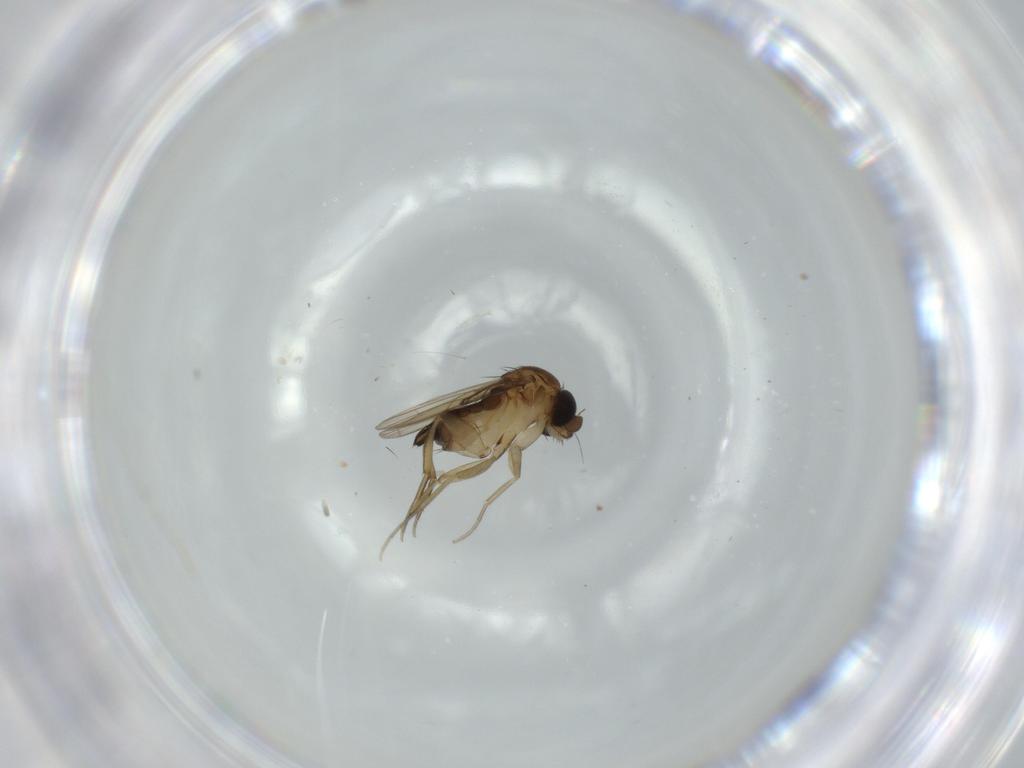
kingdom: Animalia
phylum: Arthropoda
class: Insecta
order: Diptera
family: Phoridae
